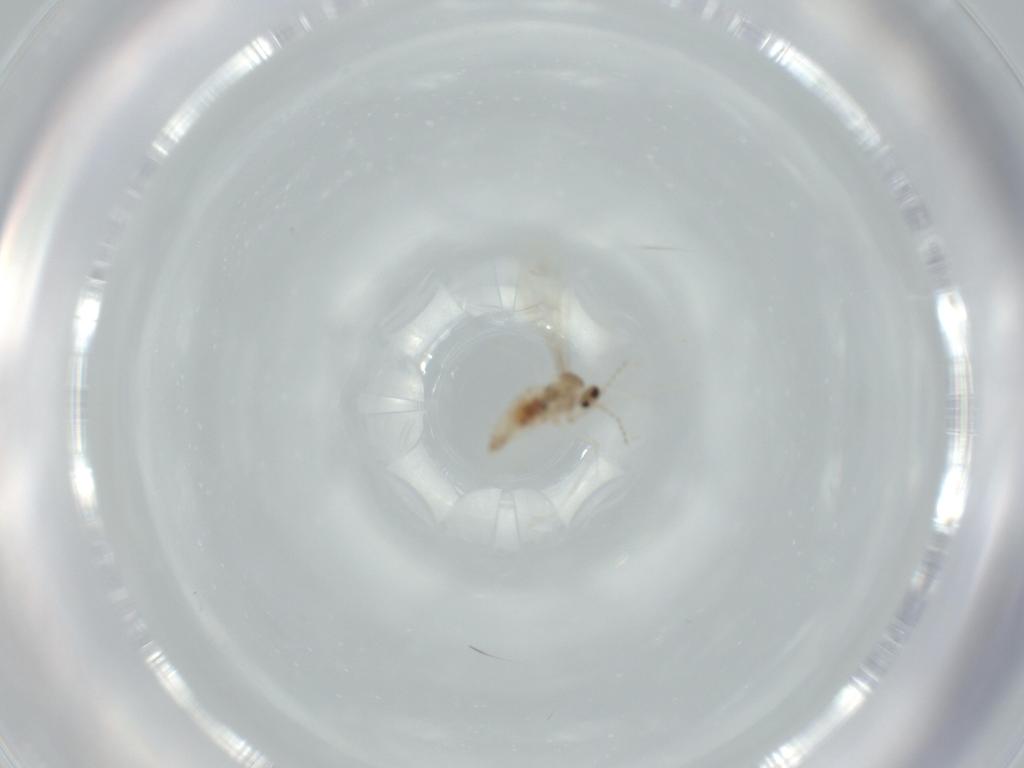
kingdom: Animalia
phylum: Arthropoda
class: Insecta
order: Diptera
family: Cecidomyiidae
